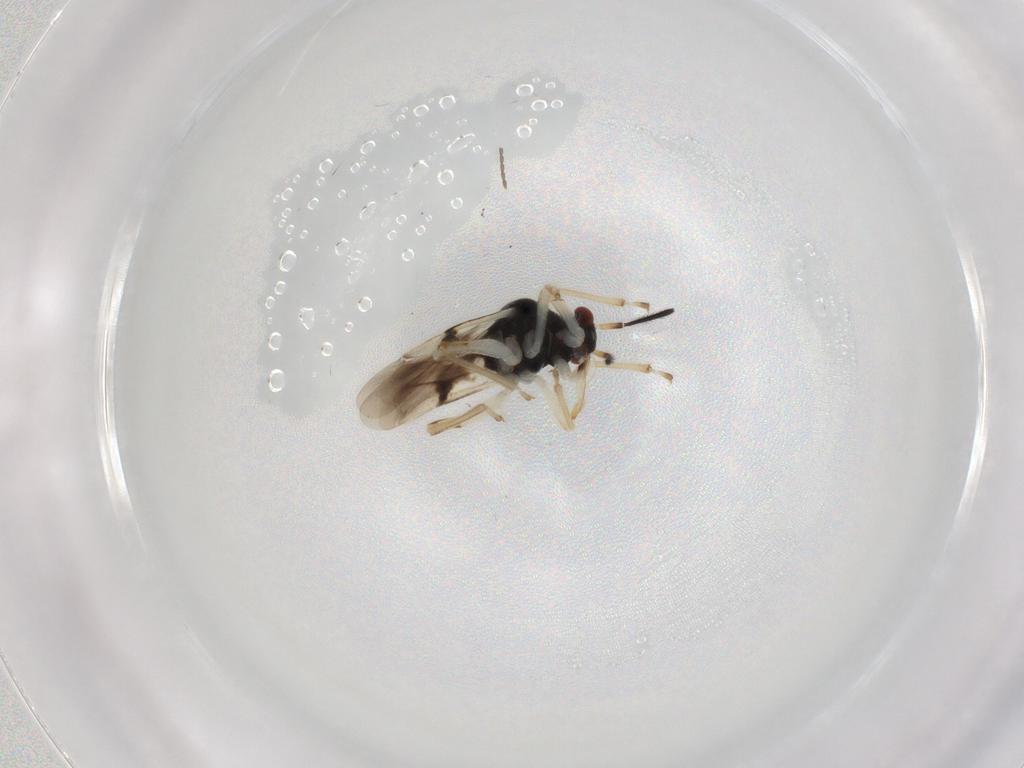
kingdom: Animalia
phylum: Arthropoda
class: Insecta
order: Hemiptera
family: Miridae
